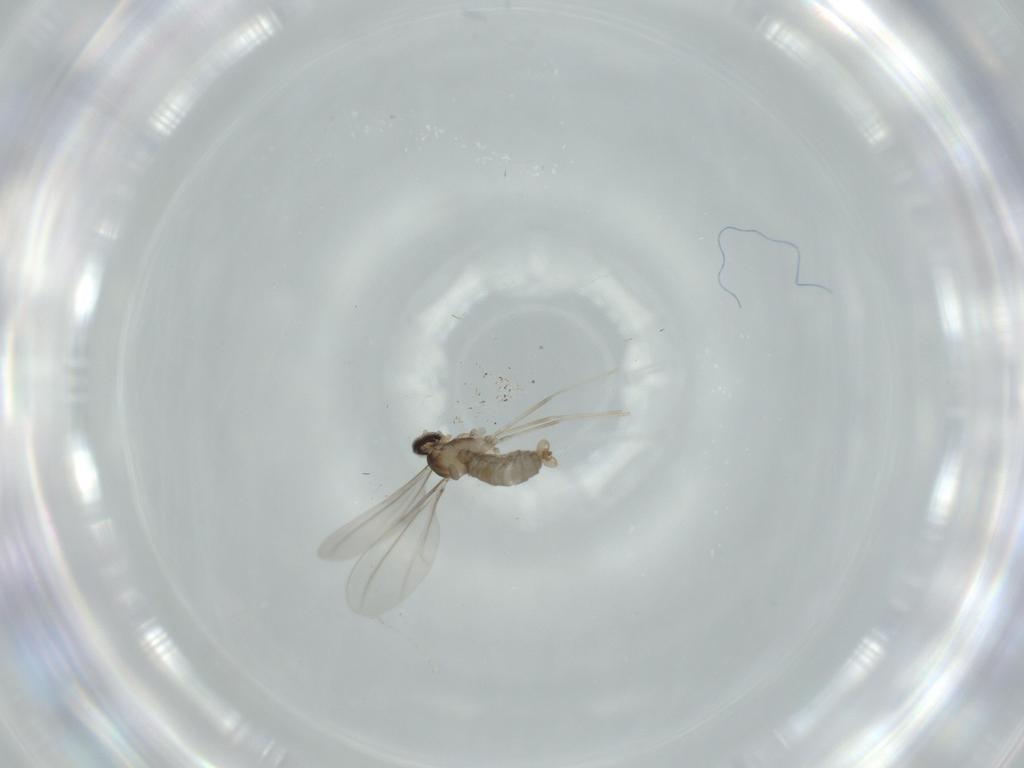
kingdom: Animalia
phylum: Arthropoda
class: Insecta
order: Diptera
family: Cecidomyiidae
